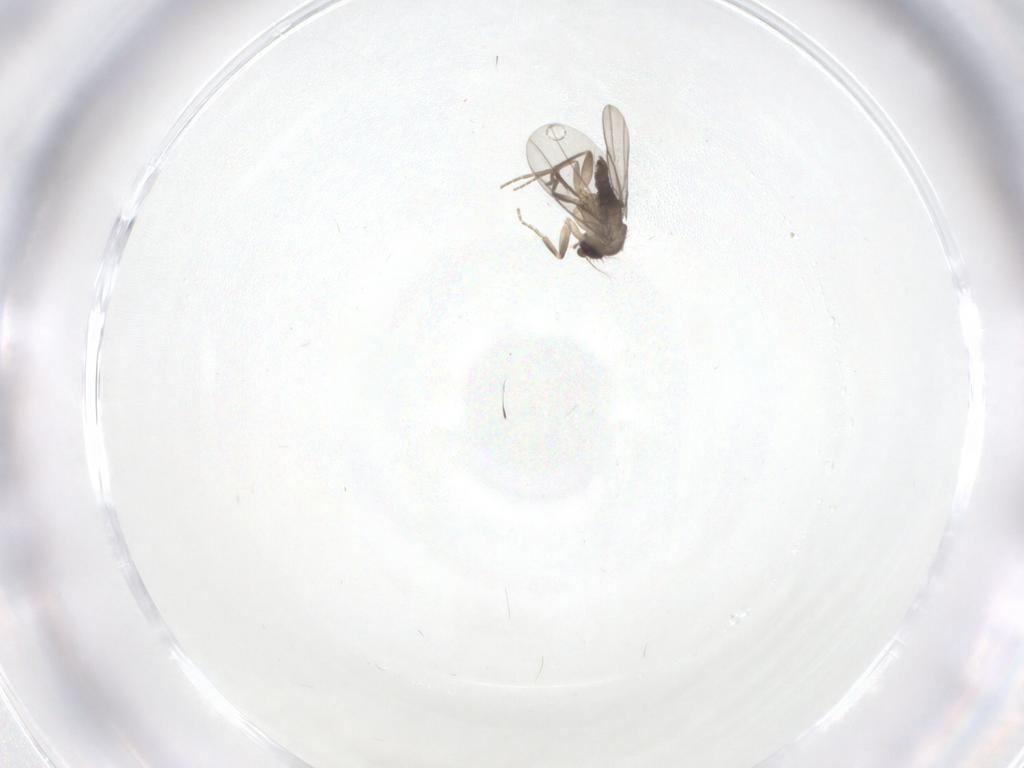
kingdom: Animalia
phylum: Arthropoda
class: Insecta
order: Diptera
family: Phoridae
